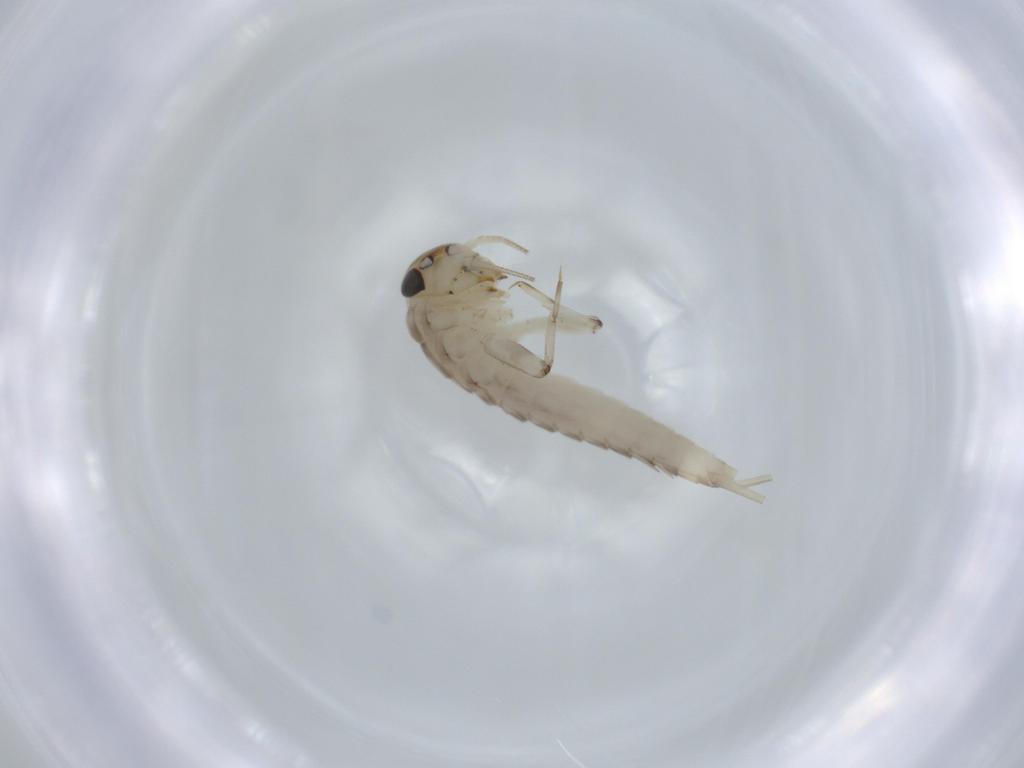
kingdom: Animalia
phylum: Arthropoda
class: Insecta
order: Ephemeroptera
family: Baetidae
